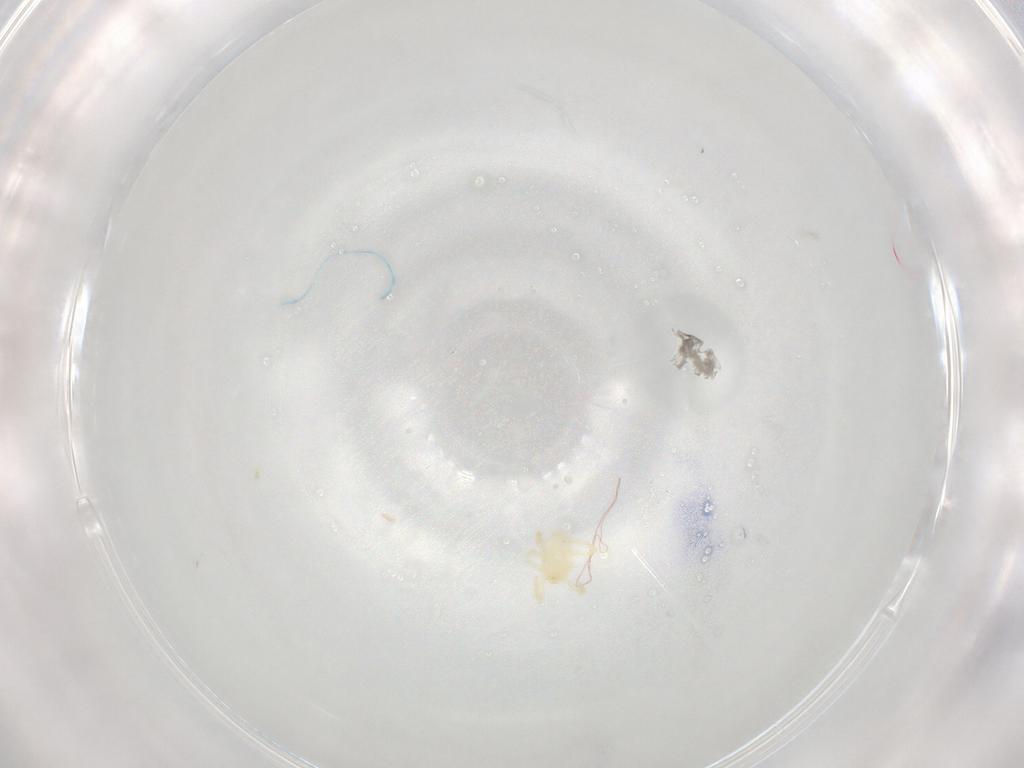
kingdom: Animalia
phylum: Arthropoda
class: Arachnida
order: Trombidiformes
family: Trombidiidae
